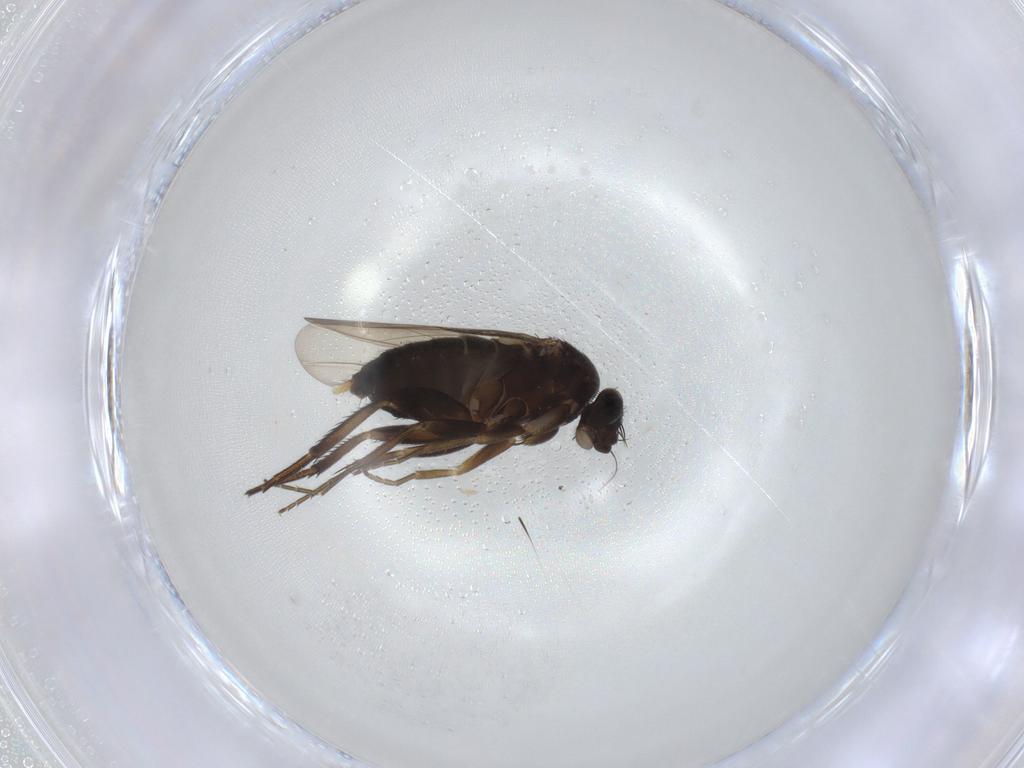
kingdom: Animalia
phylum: Arthropoda
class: Insecta
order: Diptera
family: Phoridae
